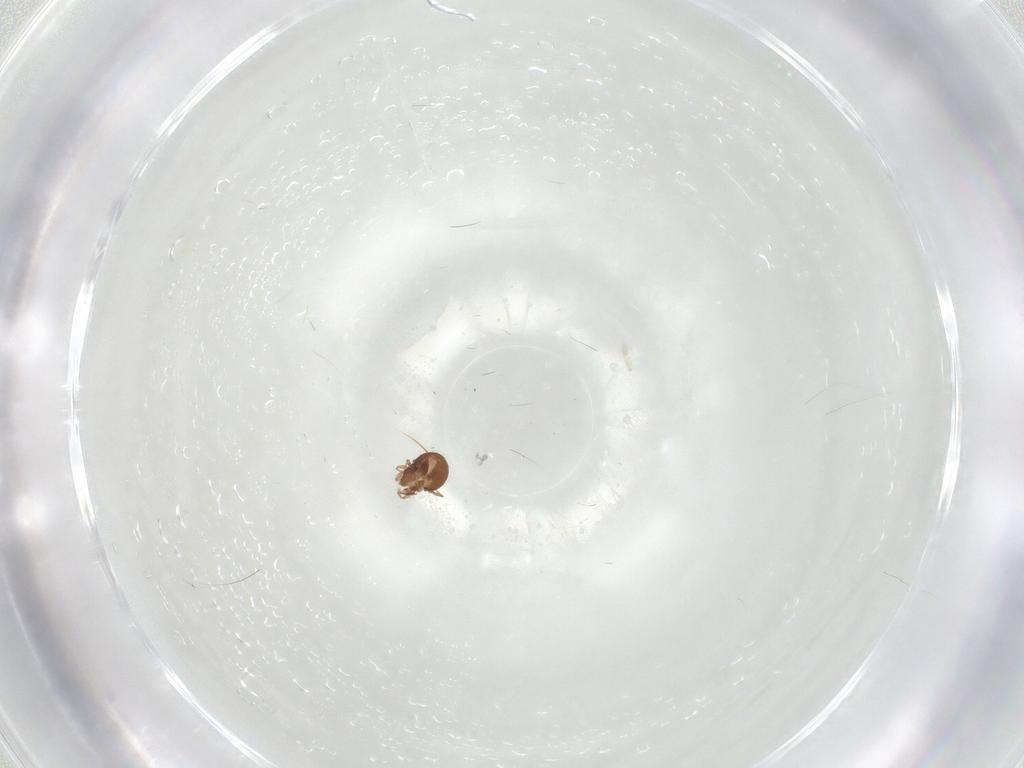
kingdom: Animalia
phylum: Arthropoda
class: Arachnida
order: Sarcoptiformes
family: Oribatulidae
